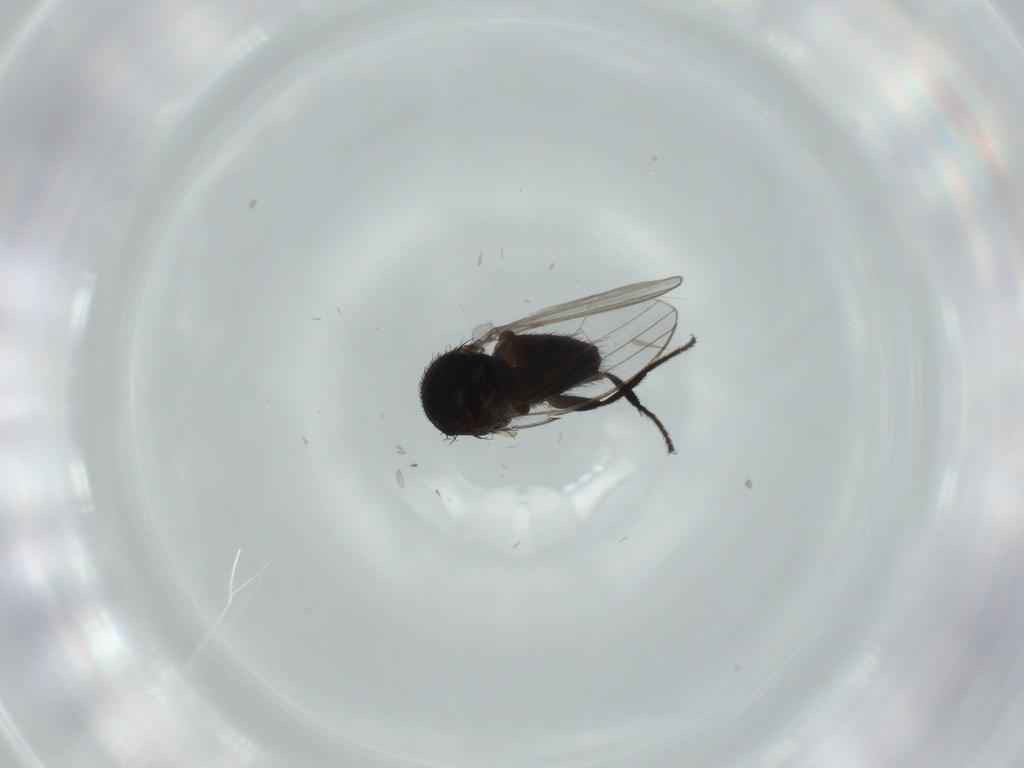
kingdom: Animalia
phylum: Arthropoda
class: Insecta
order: Diptera
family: Milichiidae
